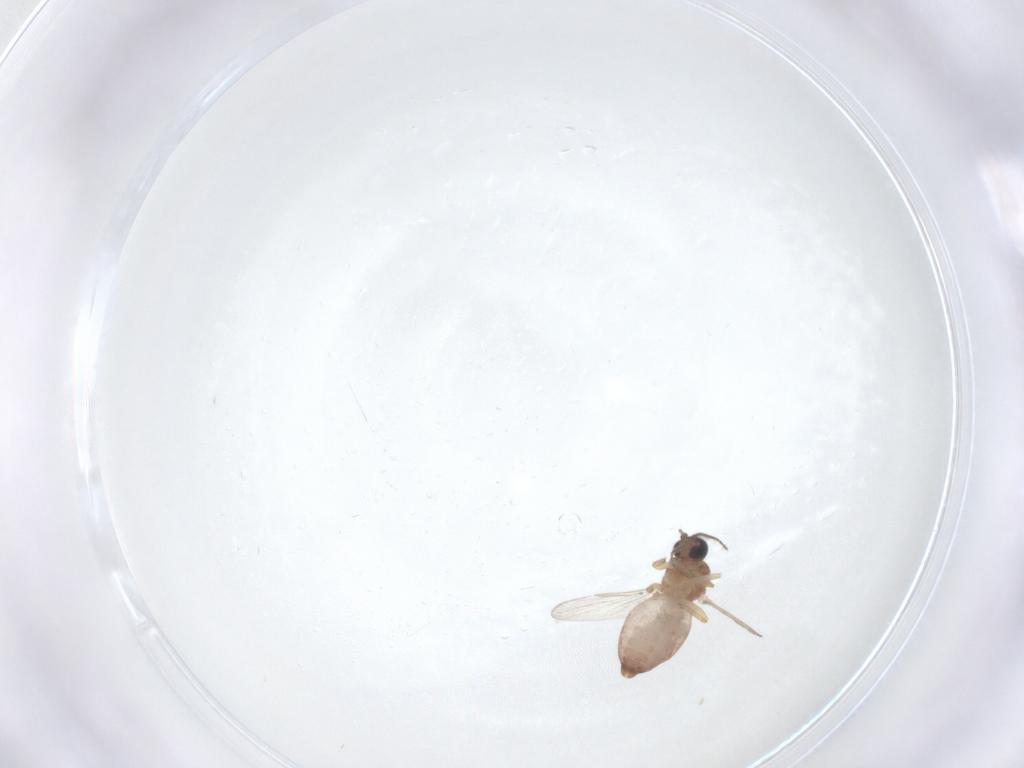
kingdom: Animalia
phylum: Arthropoda
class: Insecta
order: Diptera
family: Ceratopogonidae
